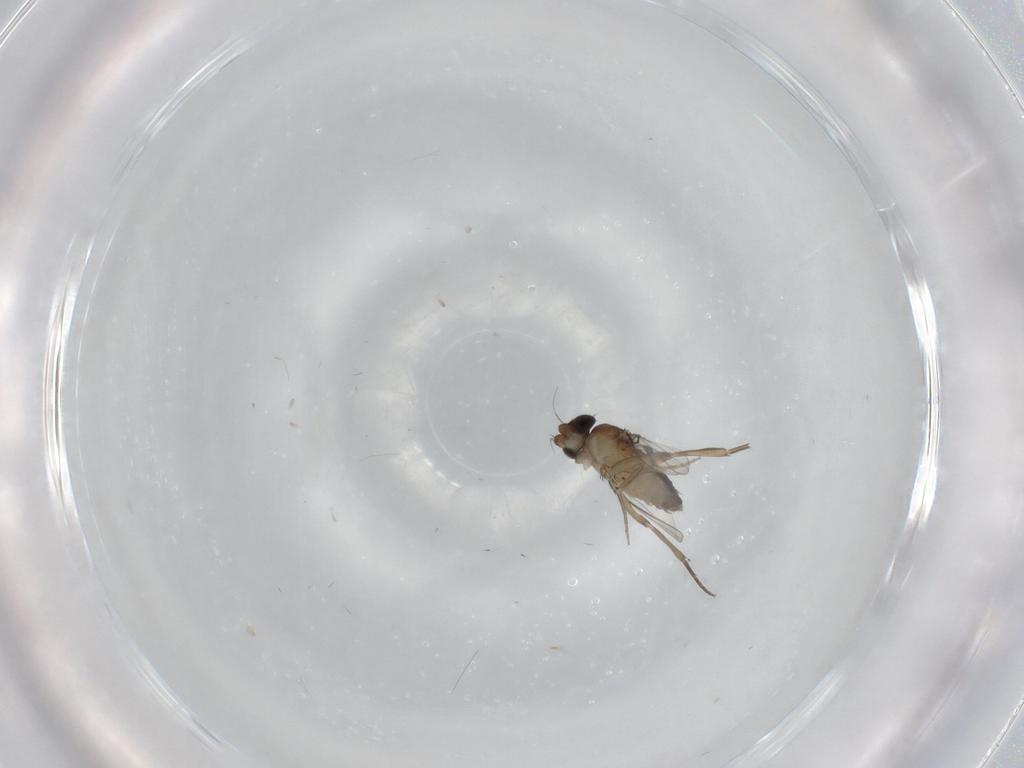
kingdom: Animalia
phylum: Arthropoda
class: Insecta
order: Diptera
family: Phoridae
